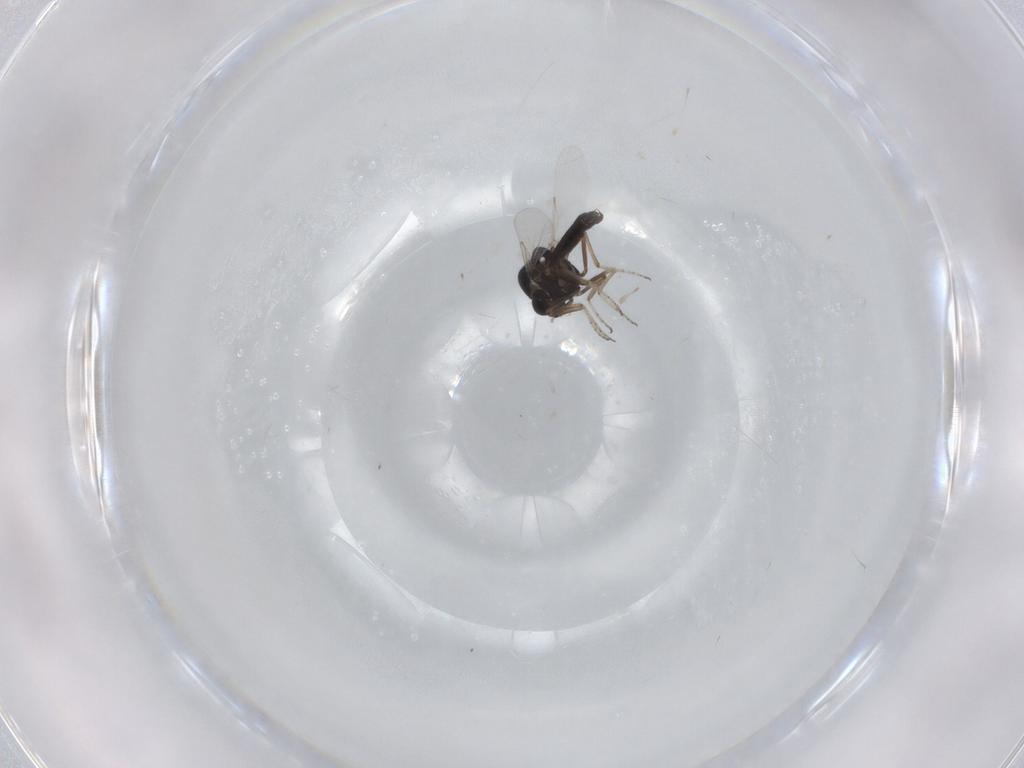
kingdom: Animalia
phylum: Arthropoda
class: Insecta
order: Diptera
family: Ceratopogonidae
